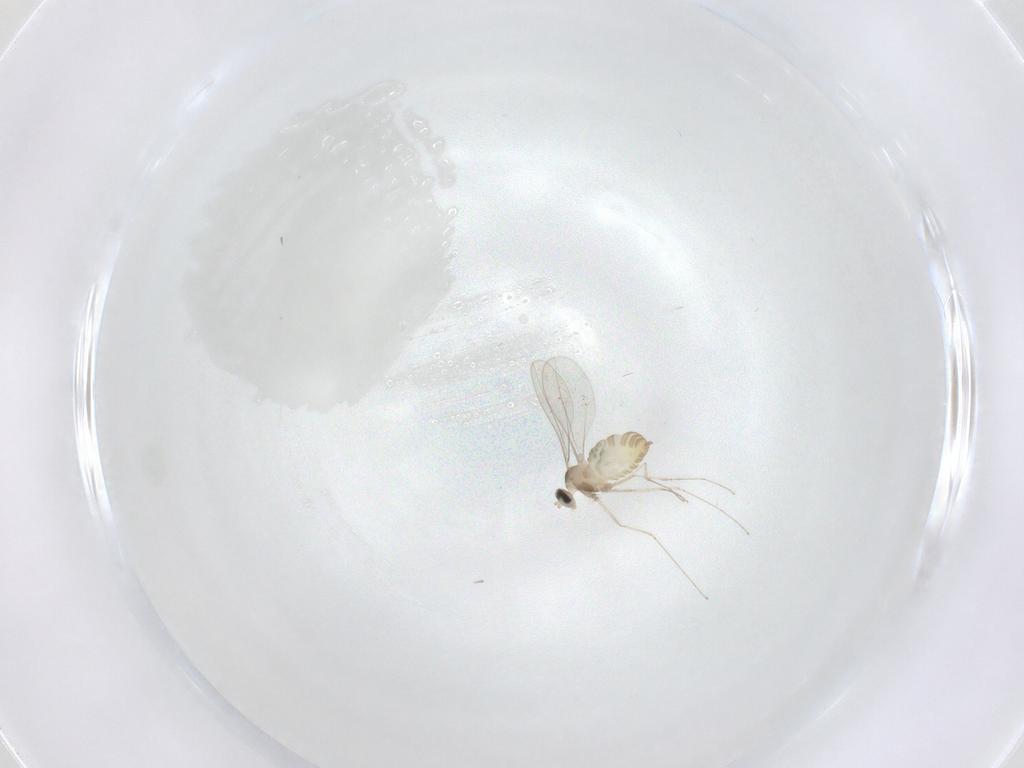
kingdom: Animalia
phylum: Arthropoda
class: Insecta
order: Diptera
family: Cecidomyiidae
